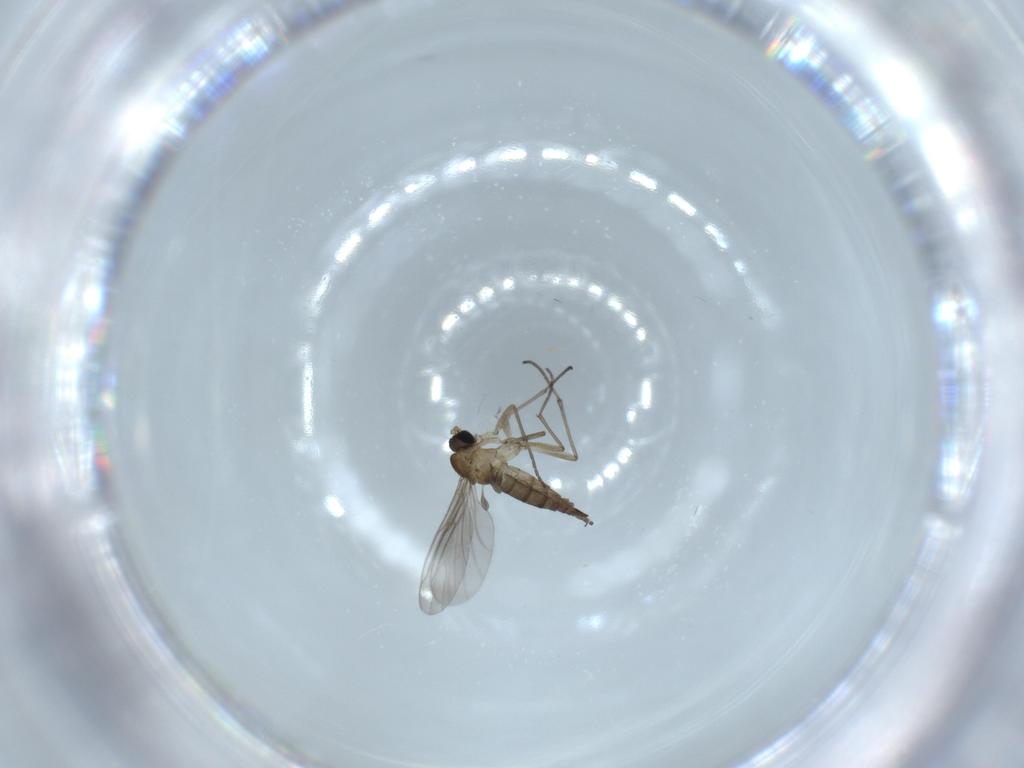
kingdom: Animalia
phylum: Arthropoda
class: Insecta
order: Diptera
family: Sciaridae
